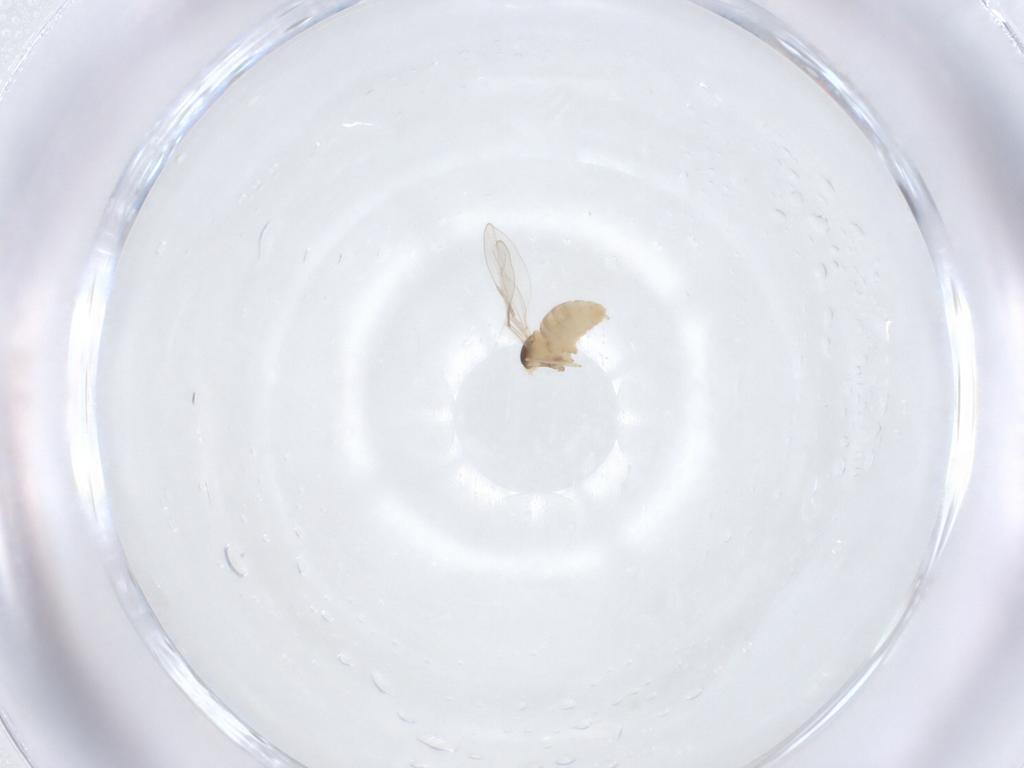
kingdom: Animalia
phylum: Arthropoda
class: Insecta
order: Diptera
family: Cecidomyiidae
